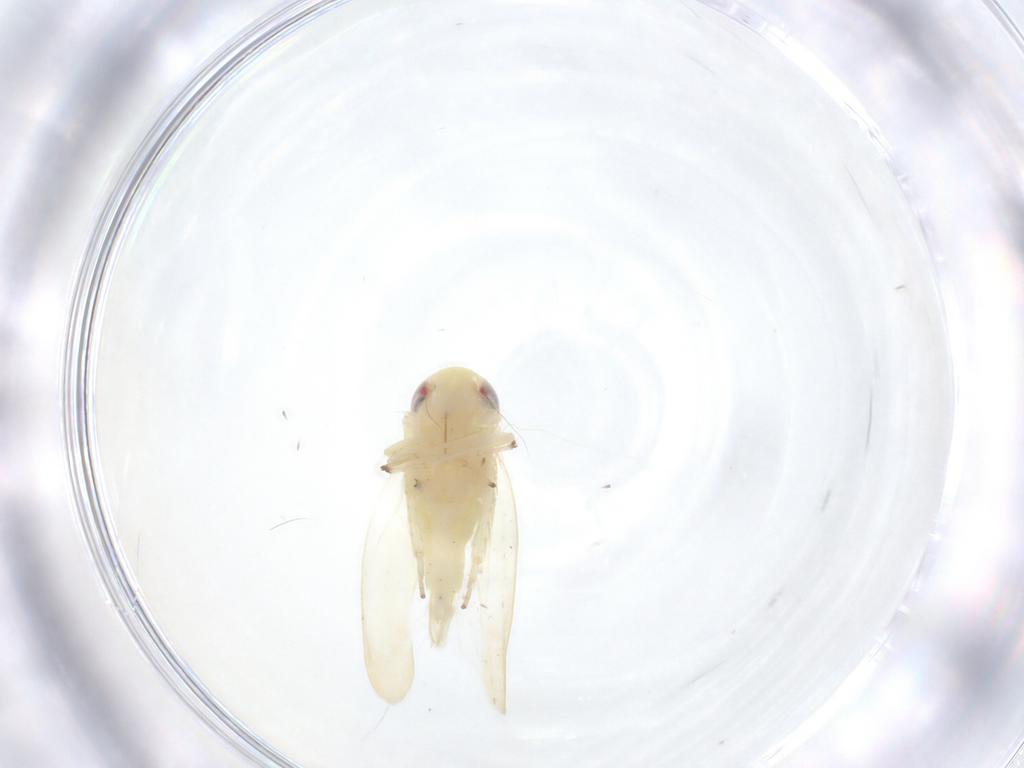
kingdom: Animalia
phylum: Arthropoda
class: Insecta
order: Hemiptera
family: Cicadellidae
